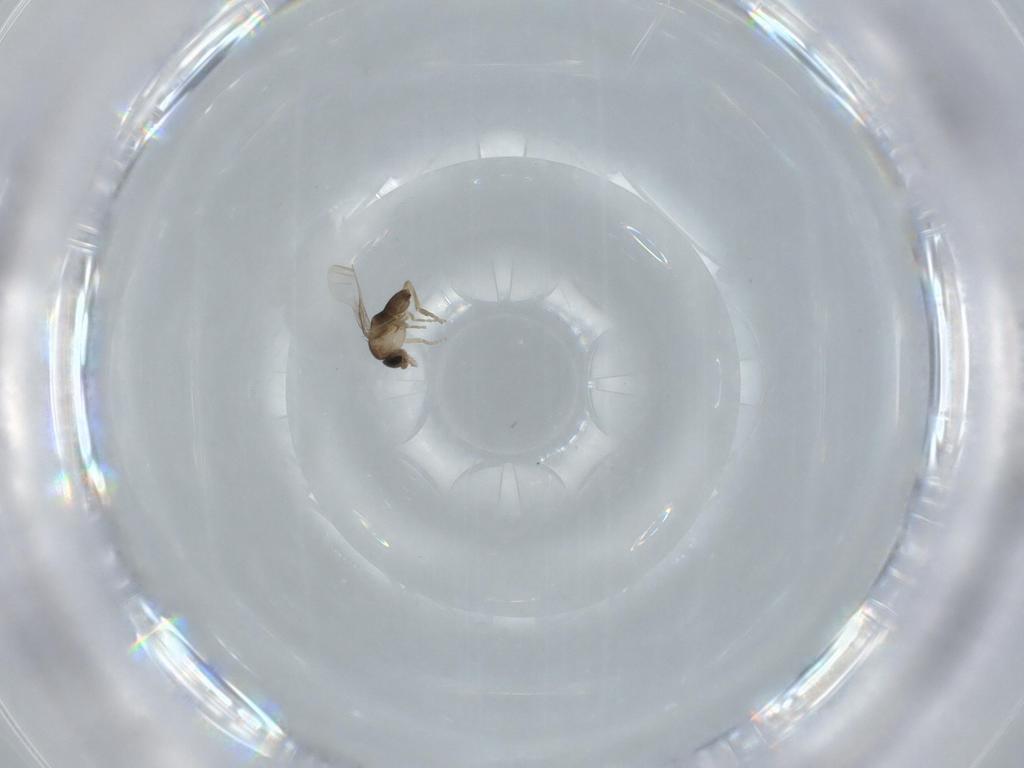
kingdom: Animalia
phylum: Arthropoda
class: Insecta
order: Diptera
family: Phoridae
